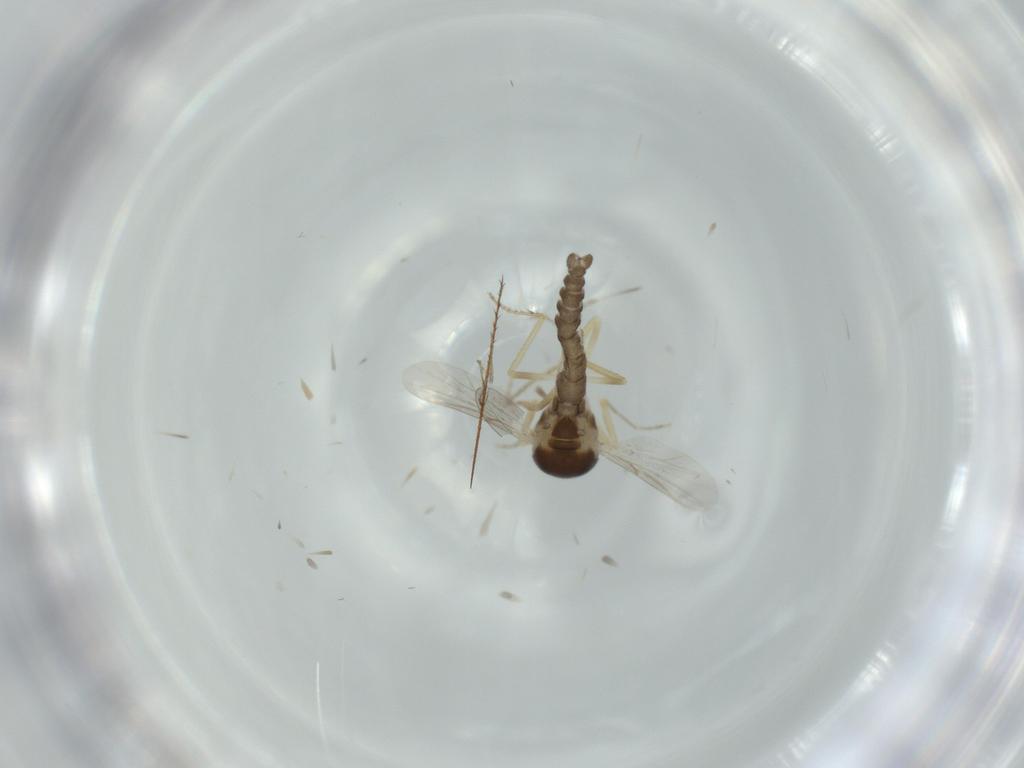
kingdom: Animalia
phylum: Arthropoda
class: Insecta
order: Diptera
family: Ceratopogonidae
